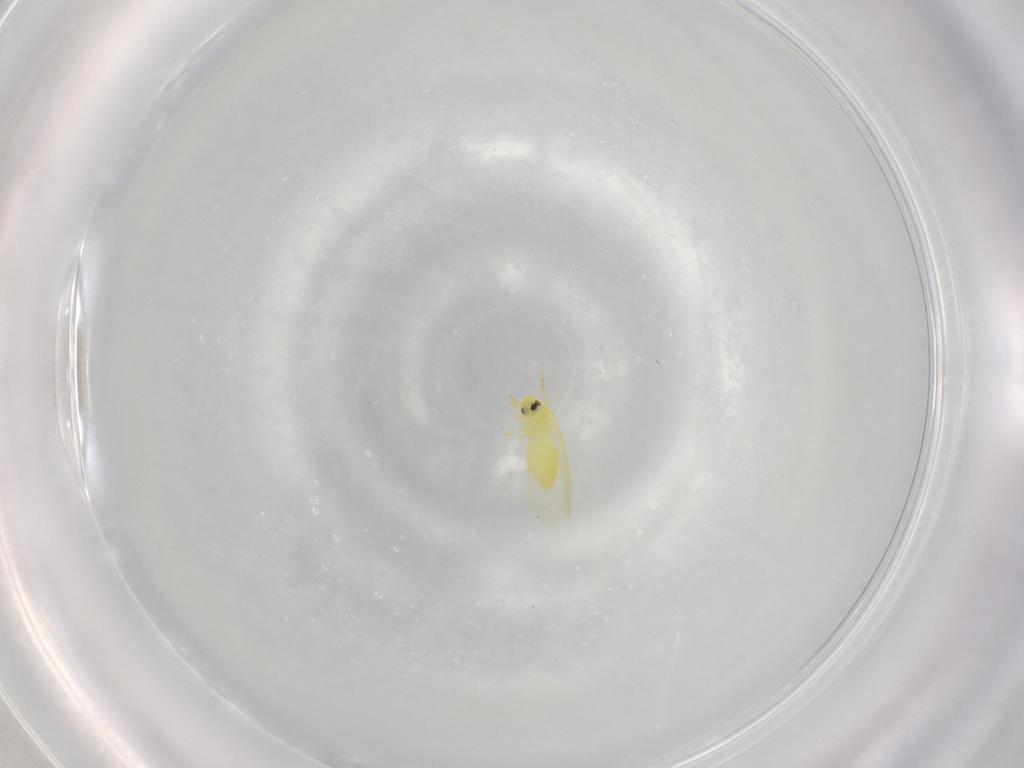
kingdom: Animalia
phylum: Arthropoda
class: Insecta
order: Hemiptera
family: Aleyrodidae
